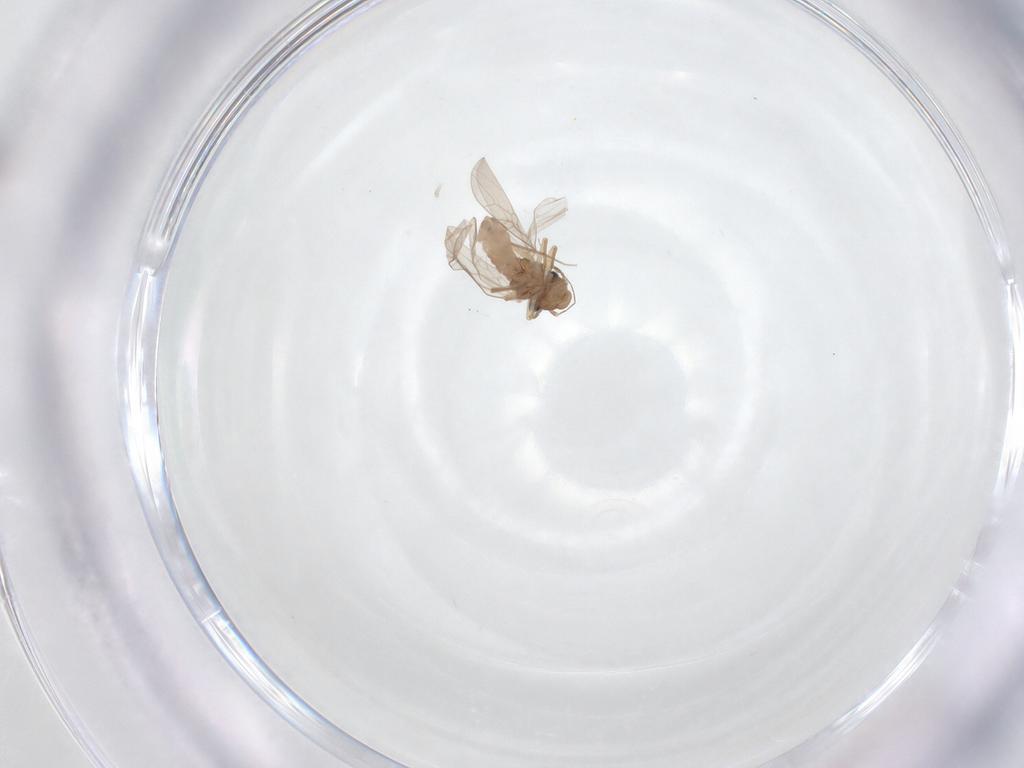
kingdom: Animalia
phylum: Arthropoda
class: Insecta
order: Psocodea
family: Lepidopsocidae
